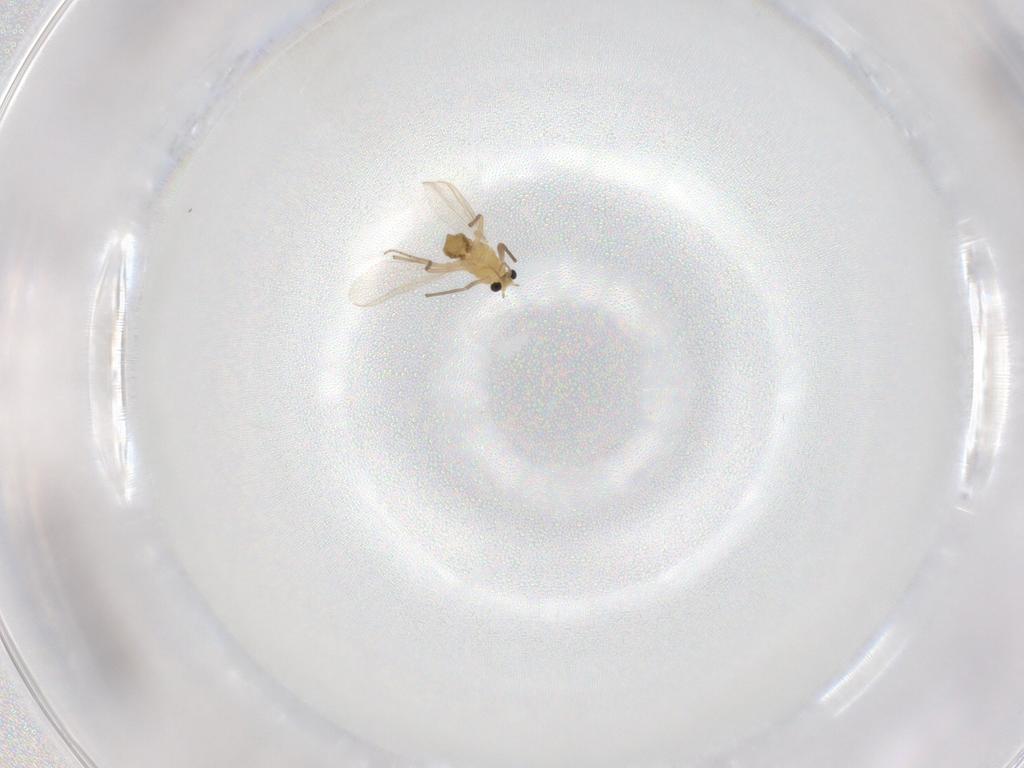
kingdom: Animalia
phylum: Arthropoda
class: Insecta
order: Diptera
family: Chironomidae
